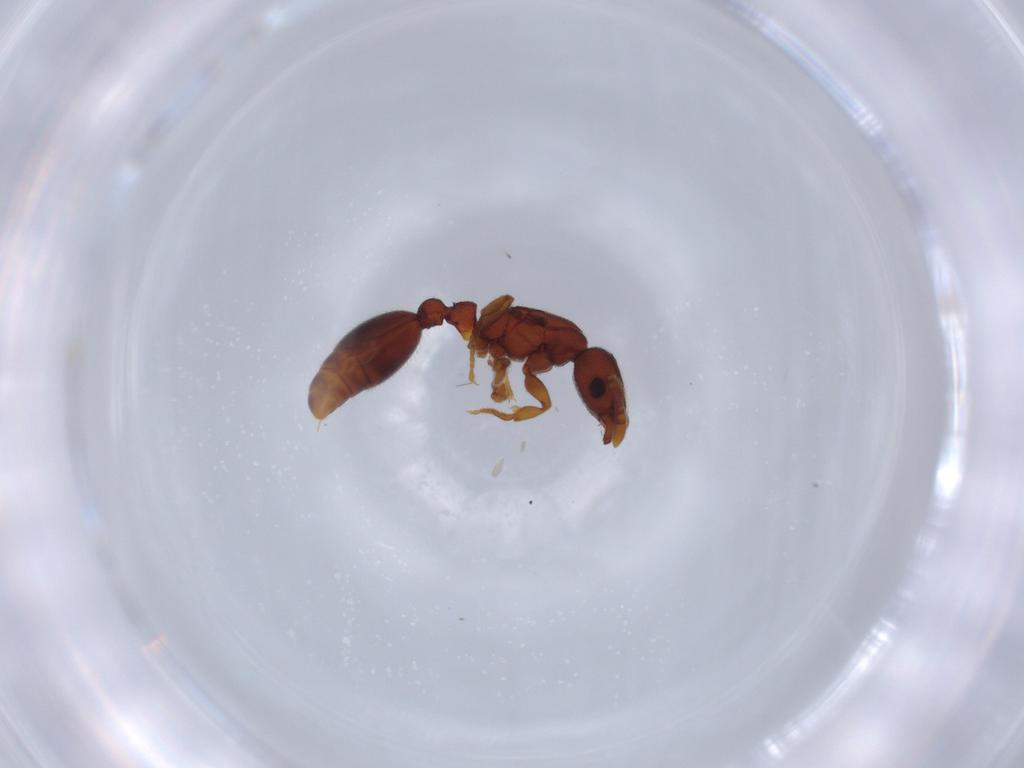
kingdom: Animalia
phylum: Arthropoda
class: Insecta
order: Hymenoptera
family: Formicidae
